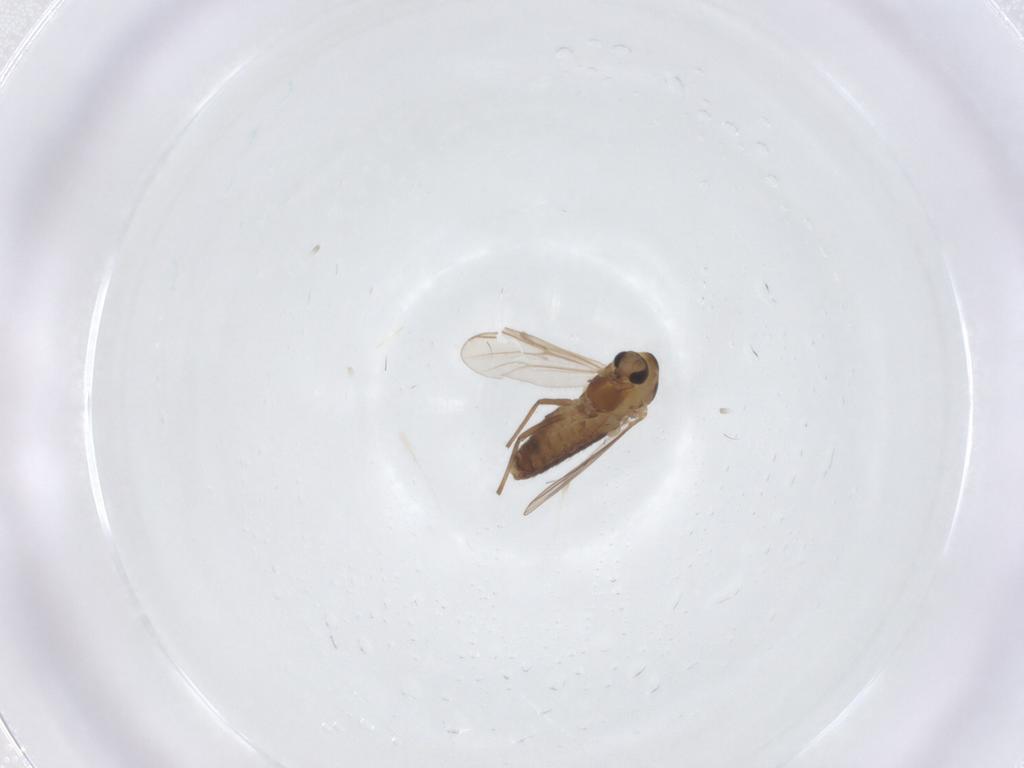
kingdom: Animalia
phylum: Arthropoda
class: Insecta
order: Diptera
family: Chironomidae
